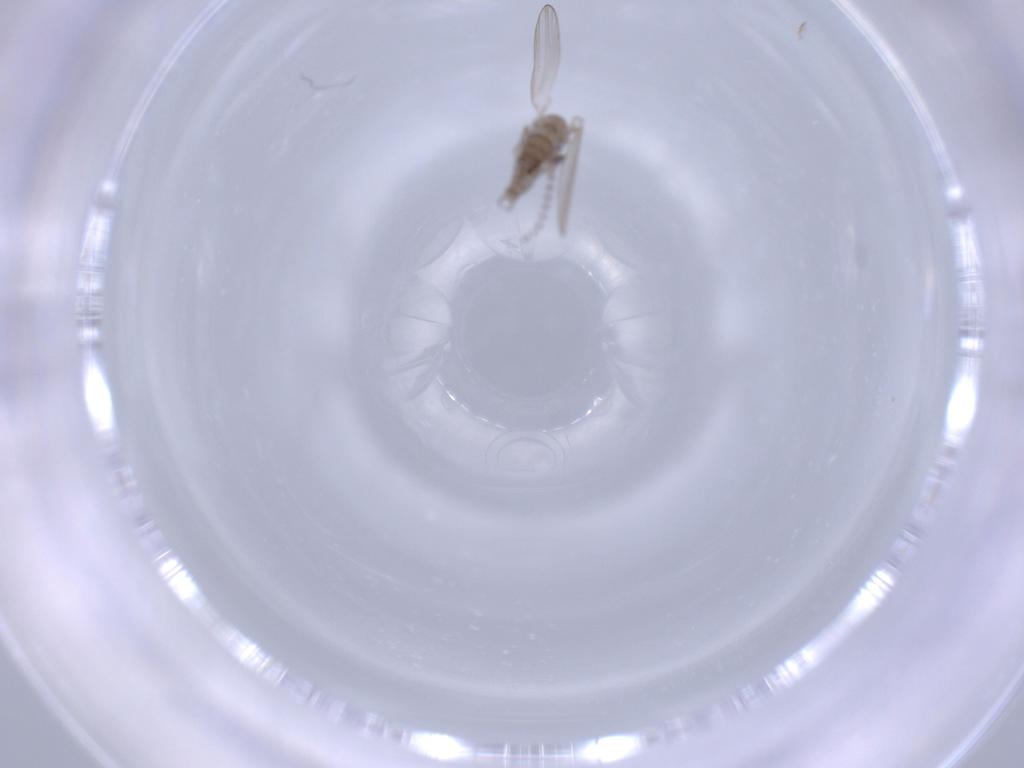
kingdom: Animalia
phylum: Arthropoda
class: Insecta
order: Diptera
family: Psychodidae
